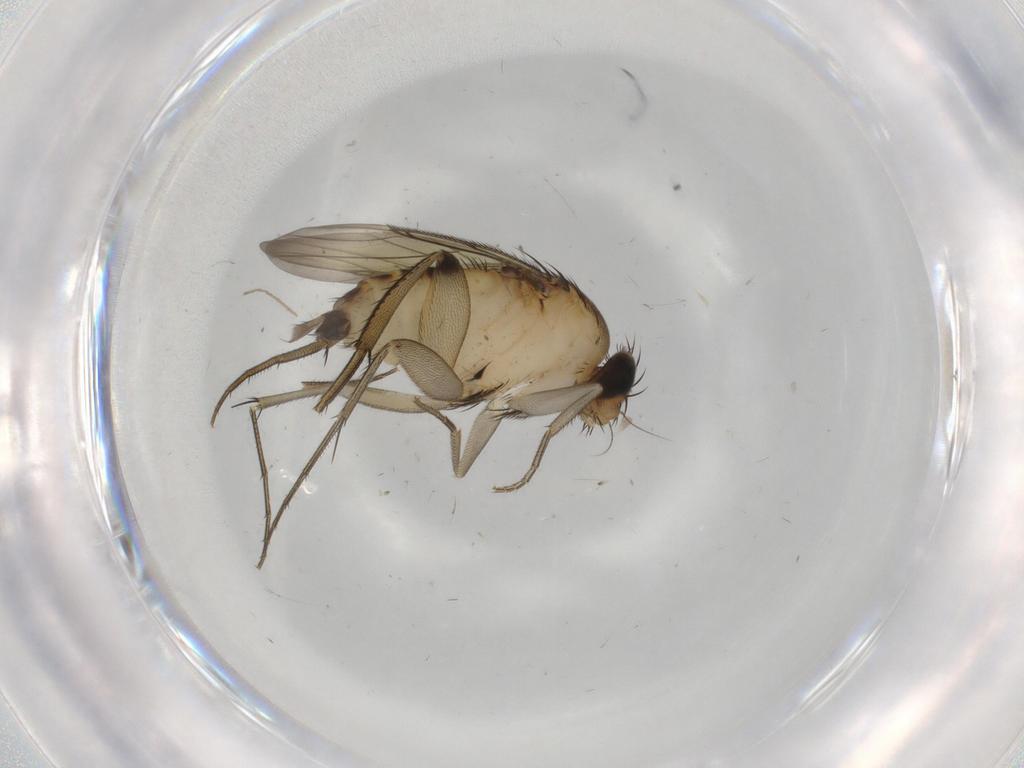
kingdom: Animalia
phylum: Arthropoda
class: Insecta
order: Diptera
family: Phoridae
